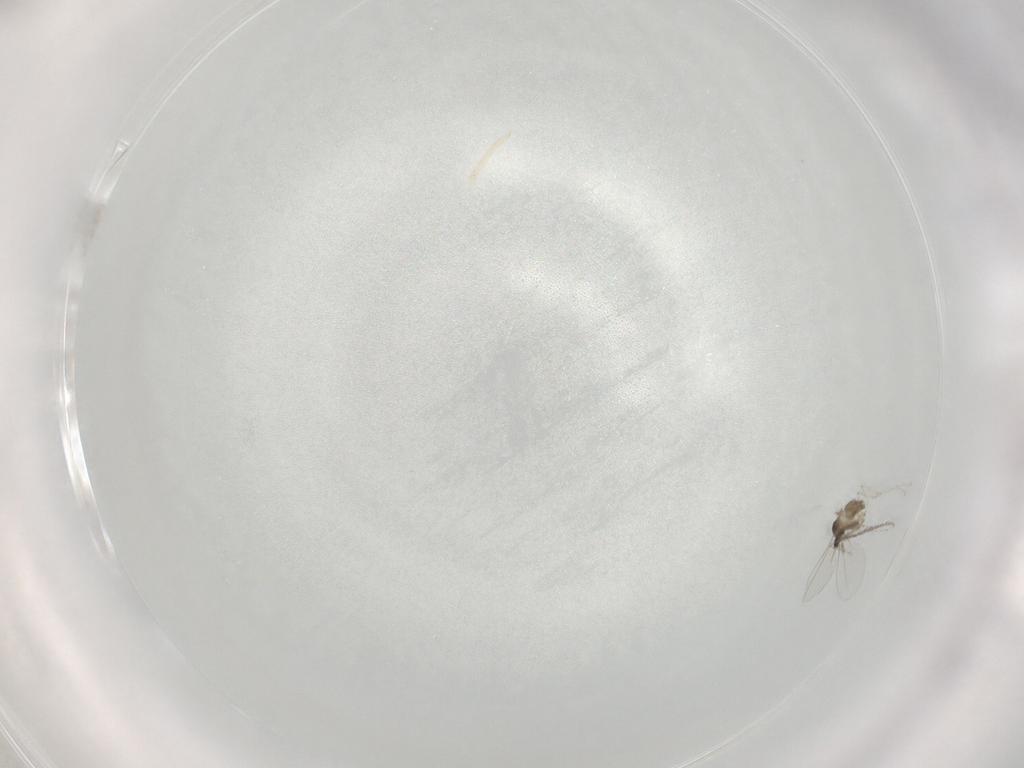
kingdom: Animalia
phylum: Arthropoda
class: Insecta
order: Diptera
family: Cecidomyiidae
